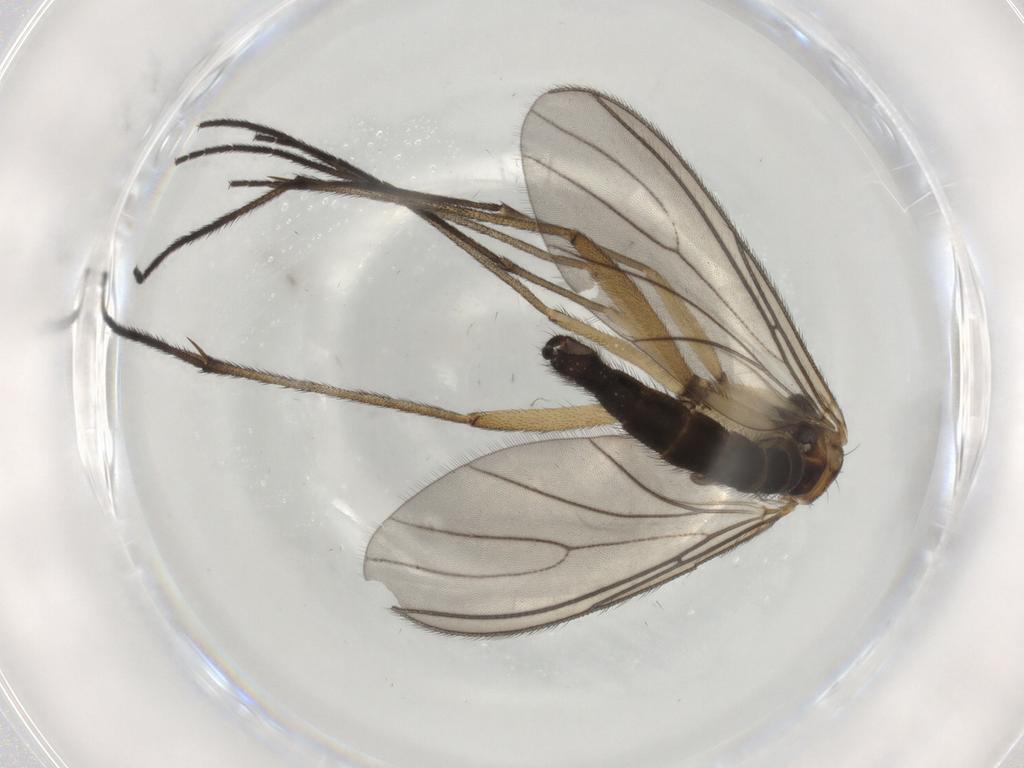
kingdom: Animalia
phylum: Arthropoda
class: Insecta
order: Diptera
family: Sciaridae
